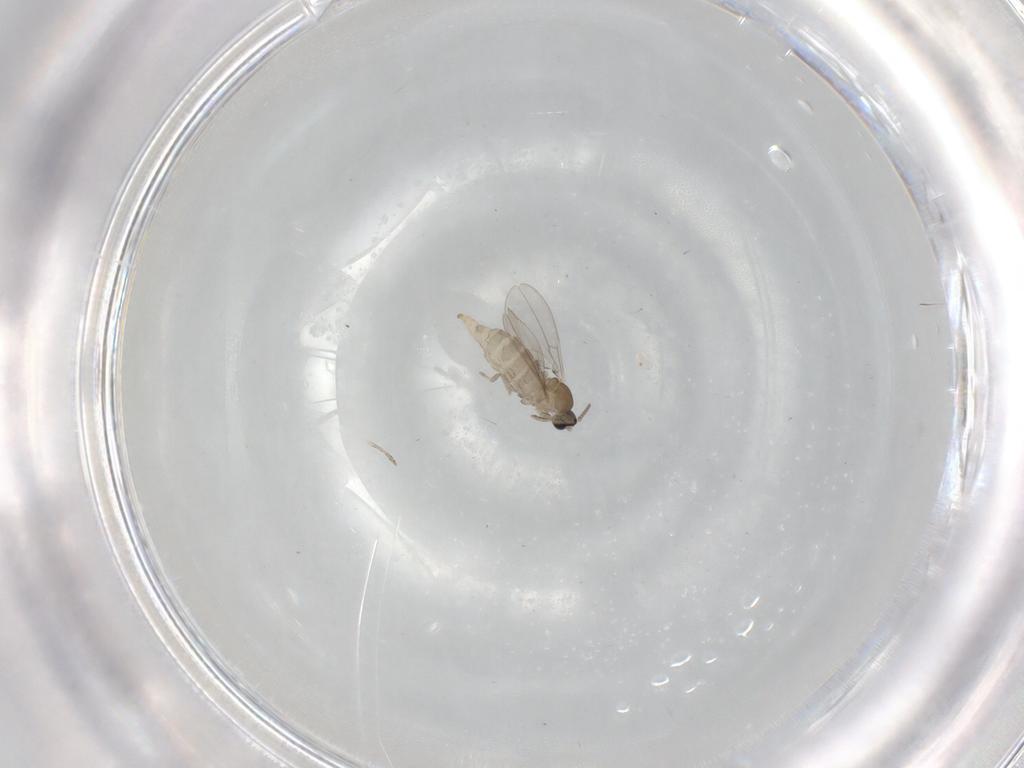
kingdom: Animalia
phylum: Arthropoda
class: Insecta
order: Diptera
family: Cecidomyiidae
